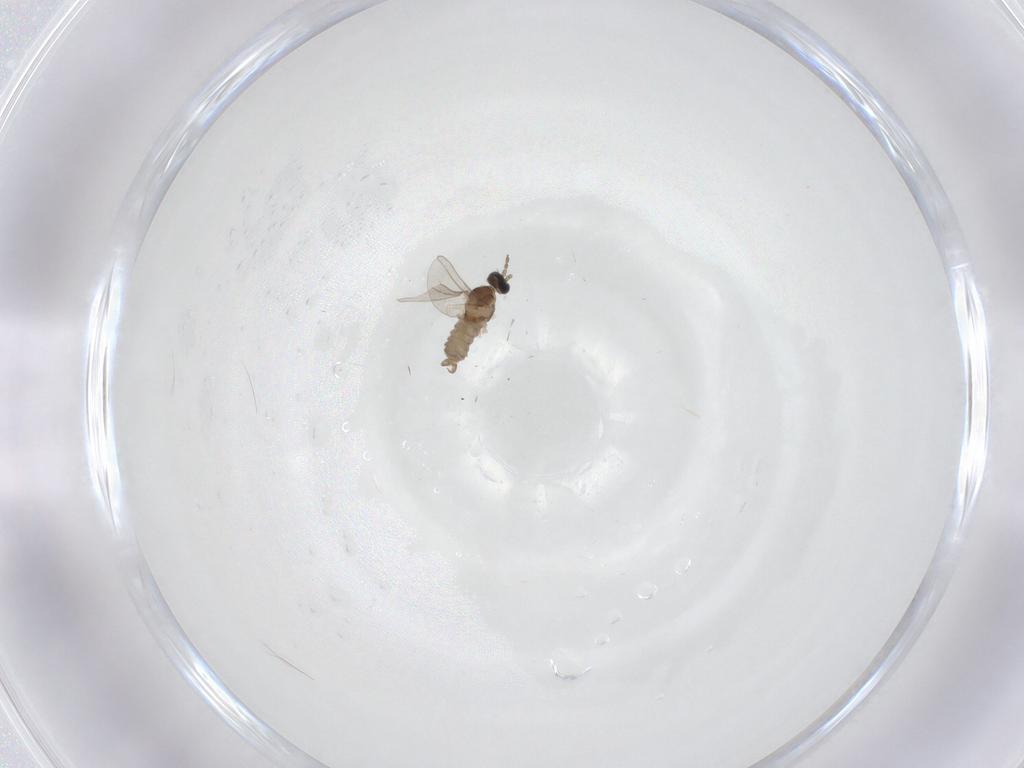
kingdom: Animalia
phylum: Arthropoda
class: Insecta
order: Diptera
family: Cecidomyiidae
